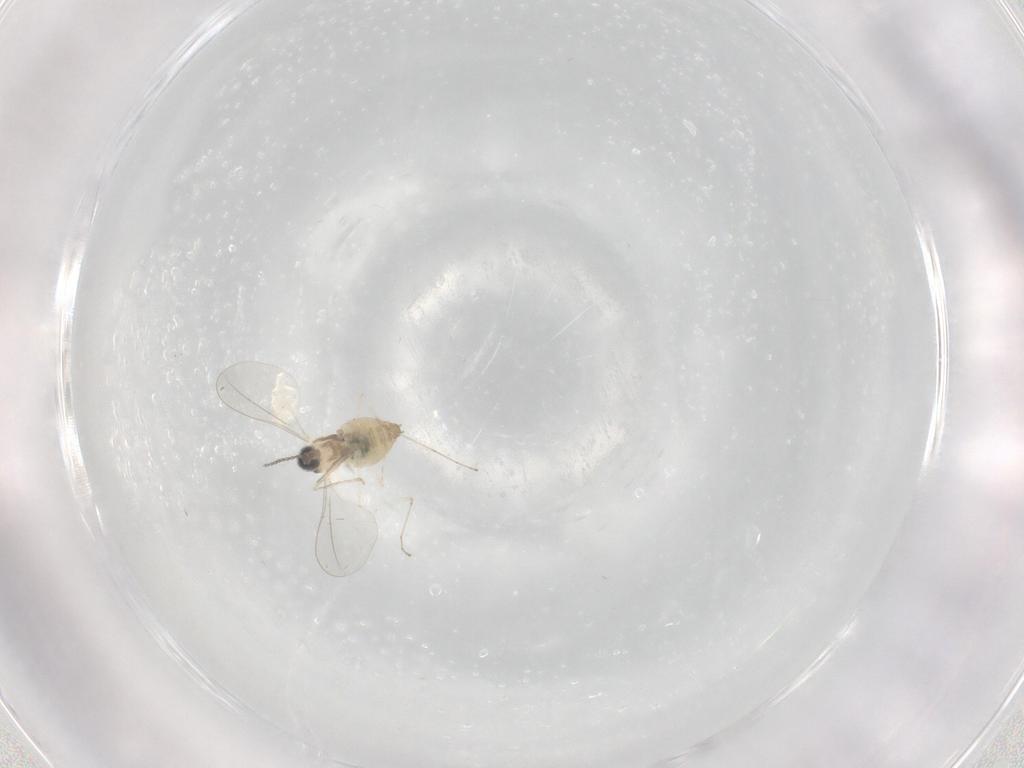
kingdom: Animalia
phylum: Arthropoda
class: Insecta
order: Diptera
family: Cecidomyiidae
